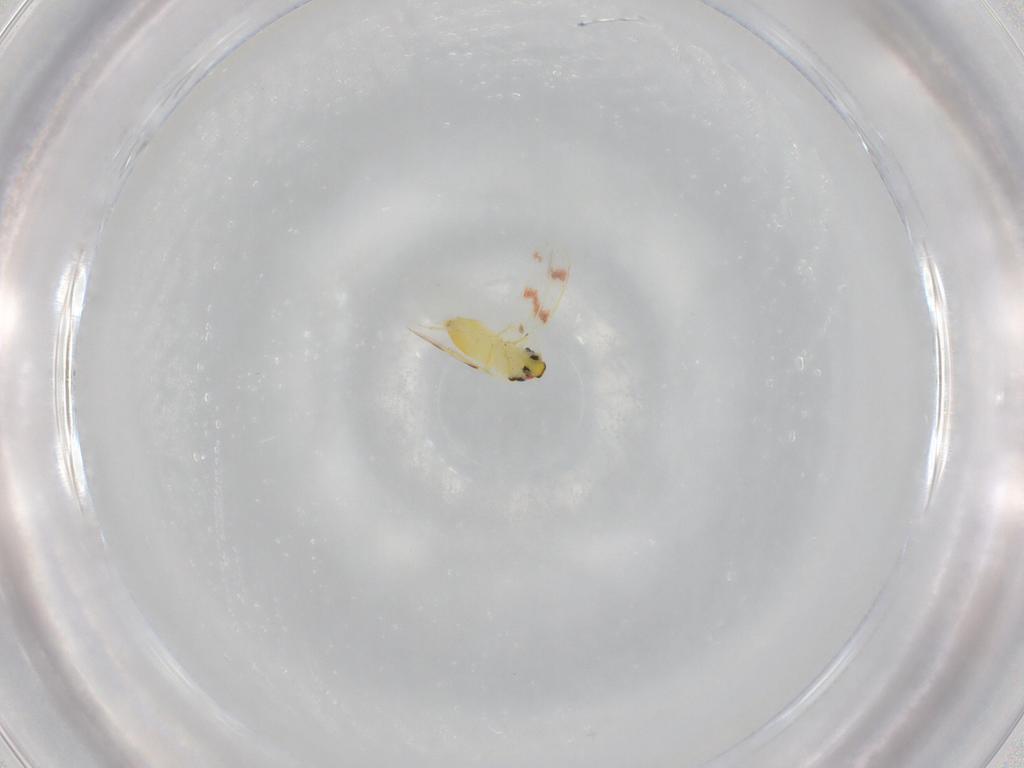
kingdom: Animalia
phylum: Arthropoda
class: Insecta
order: Hemiptera
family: Aleyrodidae
